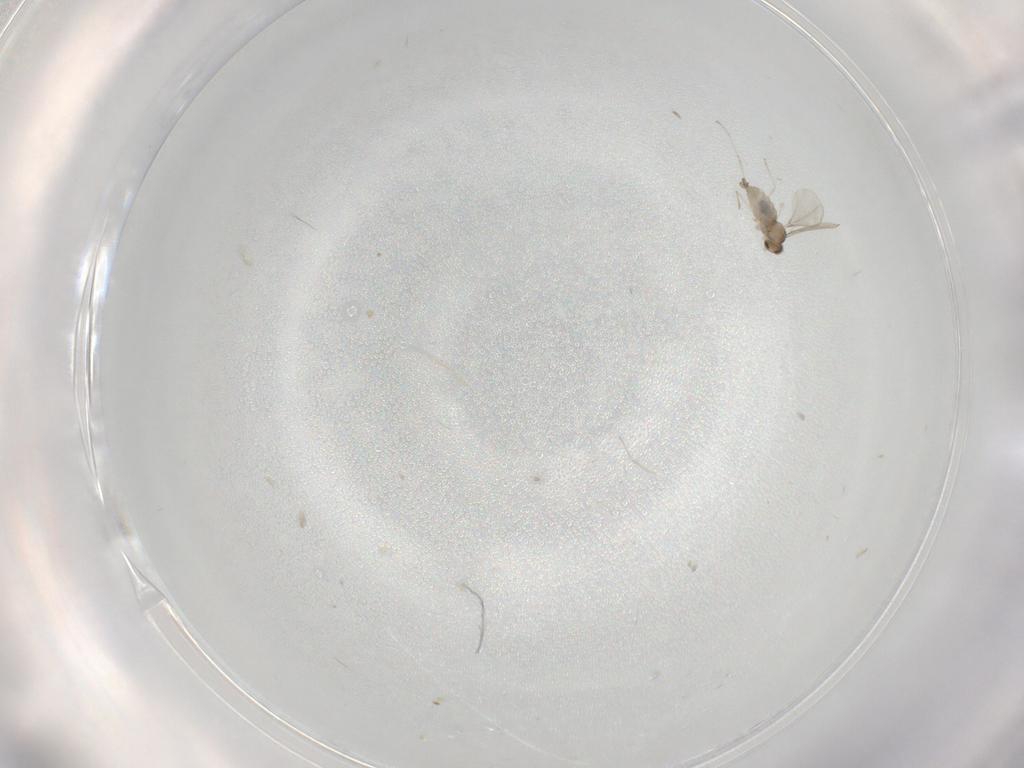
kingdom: Animalia
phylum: Arthropoda
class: Insecta
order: Diptera
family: Cecidomyiidae
